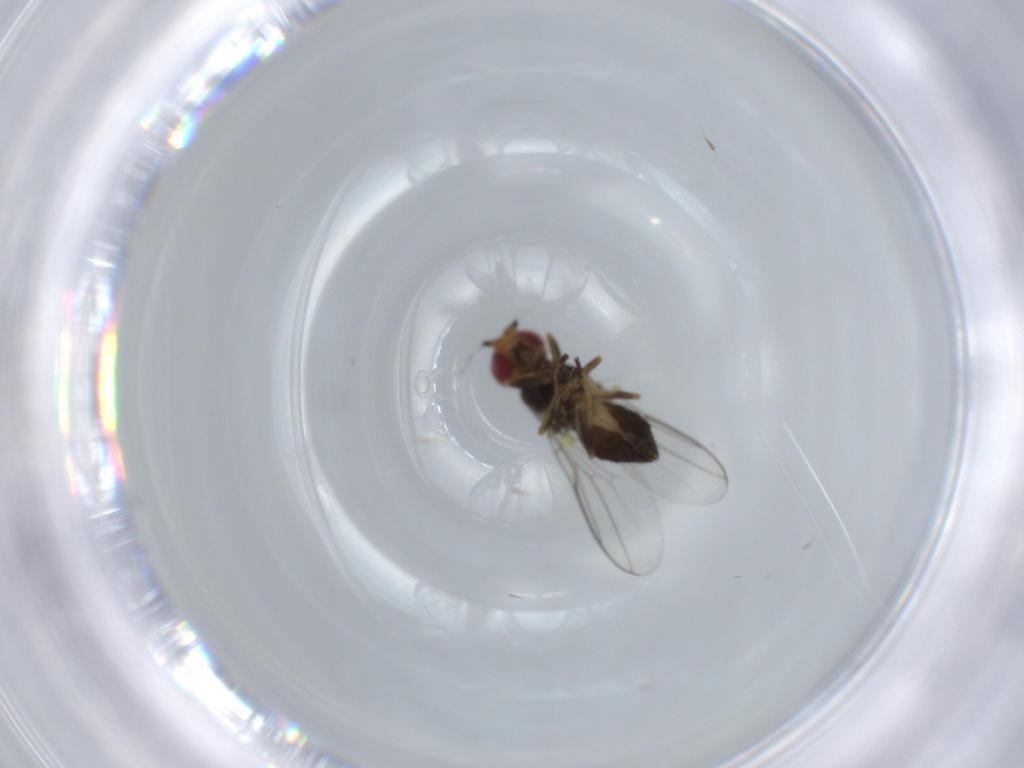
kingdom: Animalia
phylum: Arthropoda
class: Insecta
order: Diptera
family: Chloropidae
